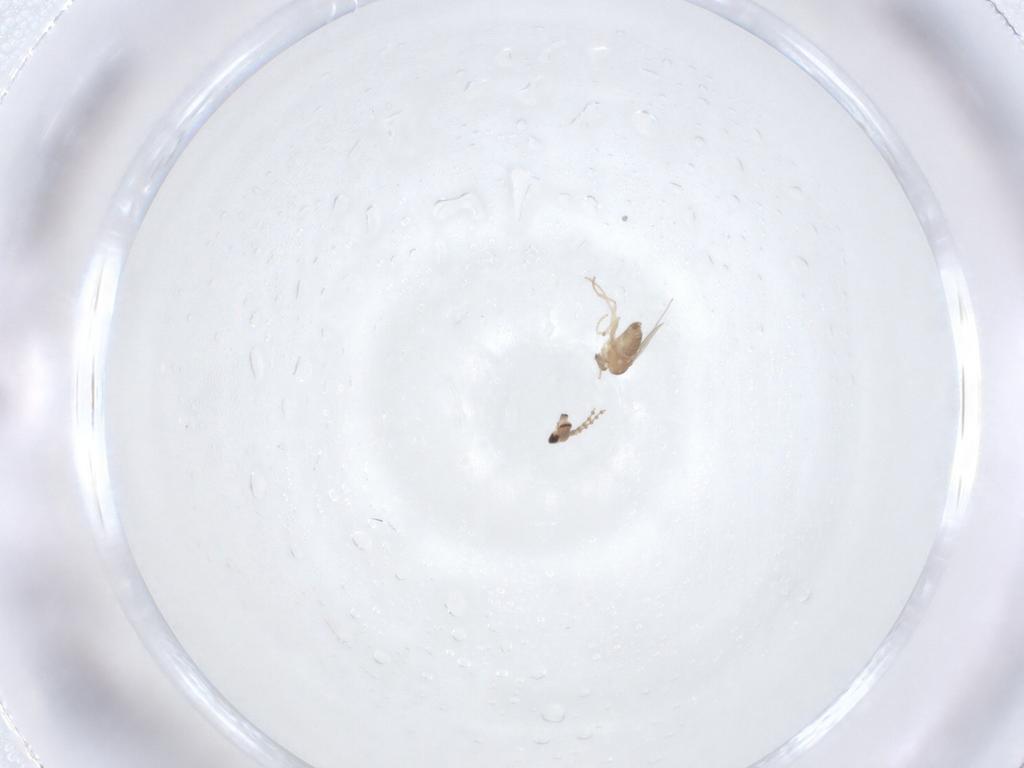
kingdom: Animalia
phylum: Arthropoda
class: Insecta
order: Diptera
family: Cecidomyiidae
